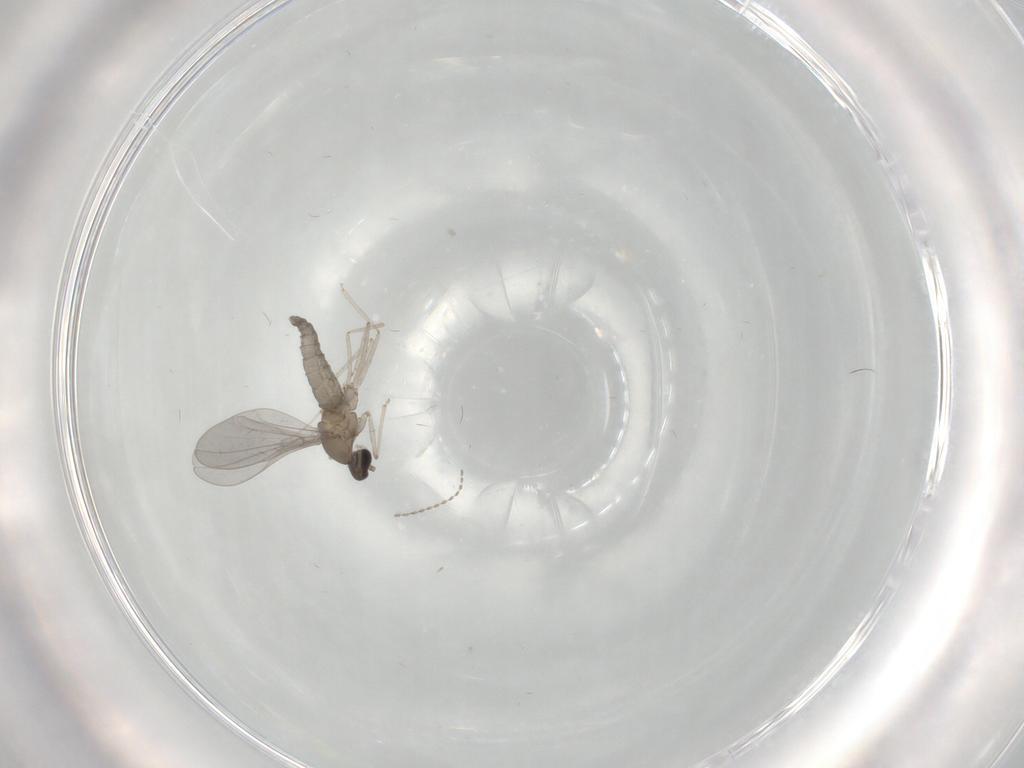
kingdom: Animalia
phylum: Arthropoda
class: Insecta
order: Diptera
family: Phoridae
